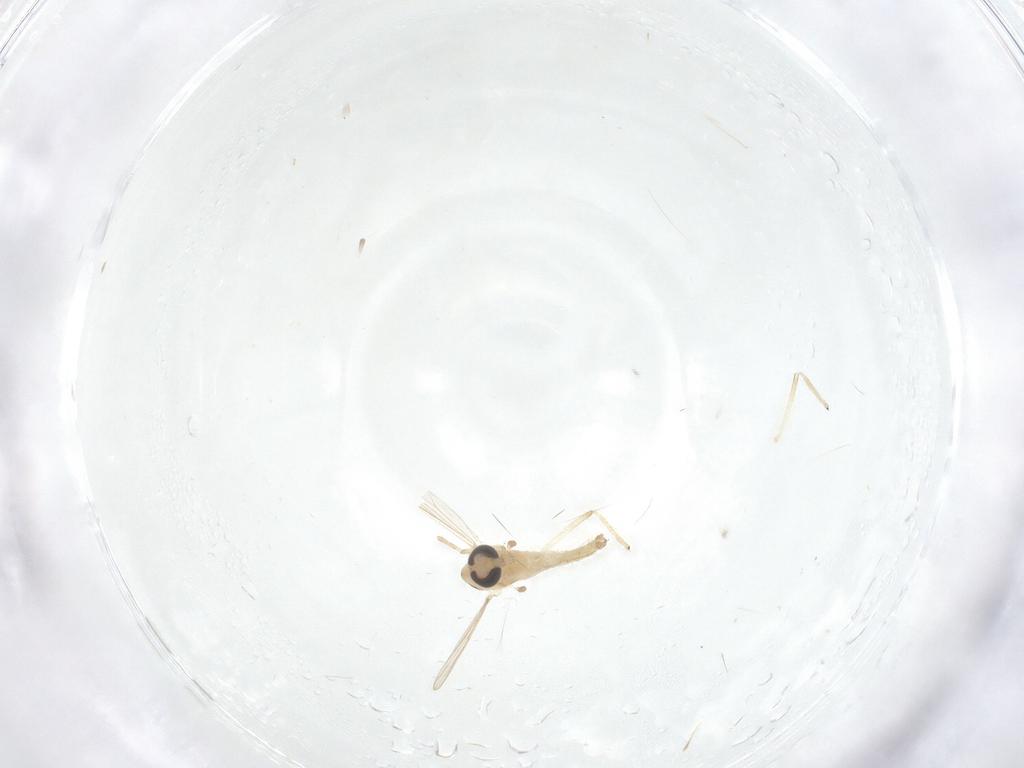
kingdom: Animalia
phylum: Arthropoda
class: Insecta
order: Diptera
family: Chironomidae
